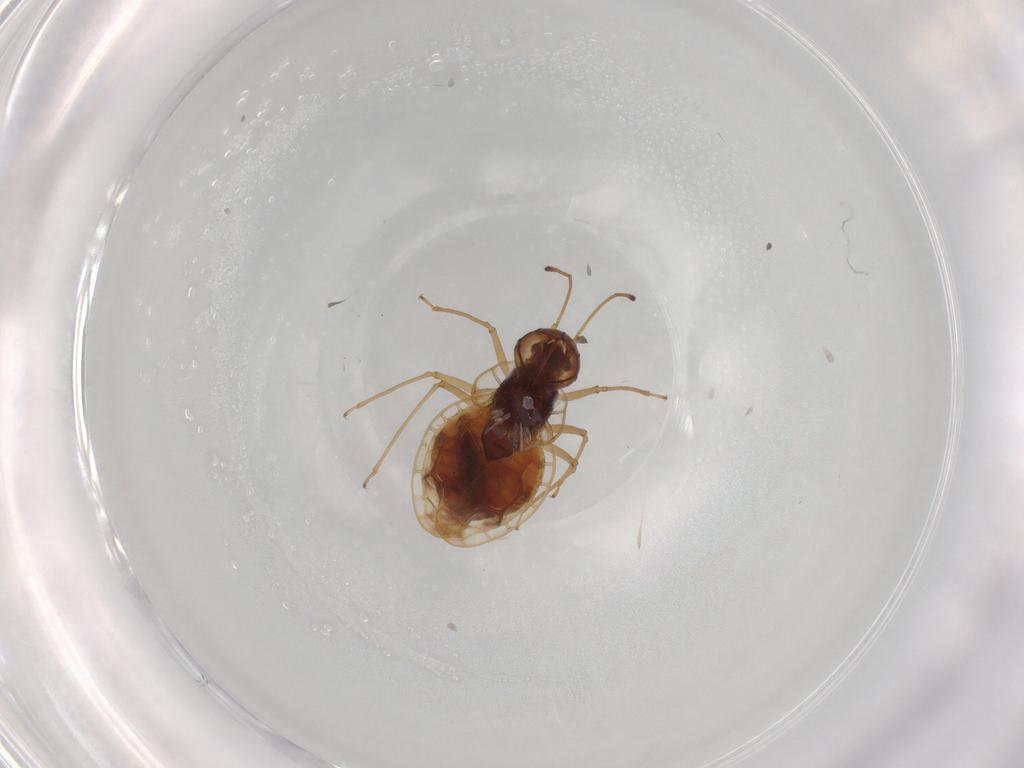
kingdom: Animalia
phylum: Arthropoda
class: Insecta
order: Hemiptera
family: Tingidae
